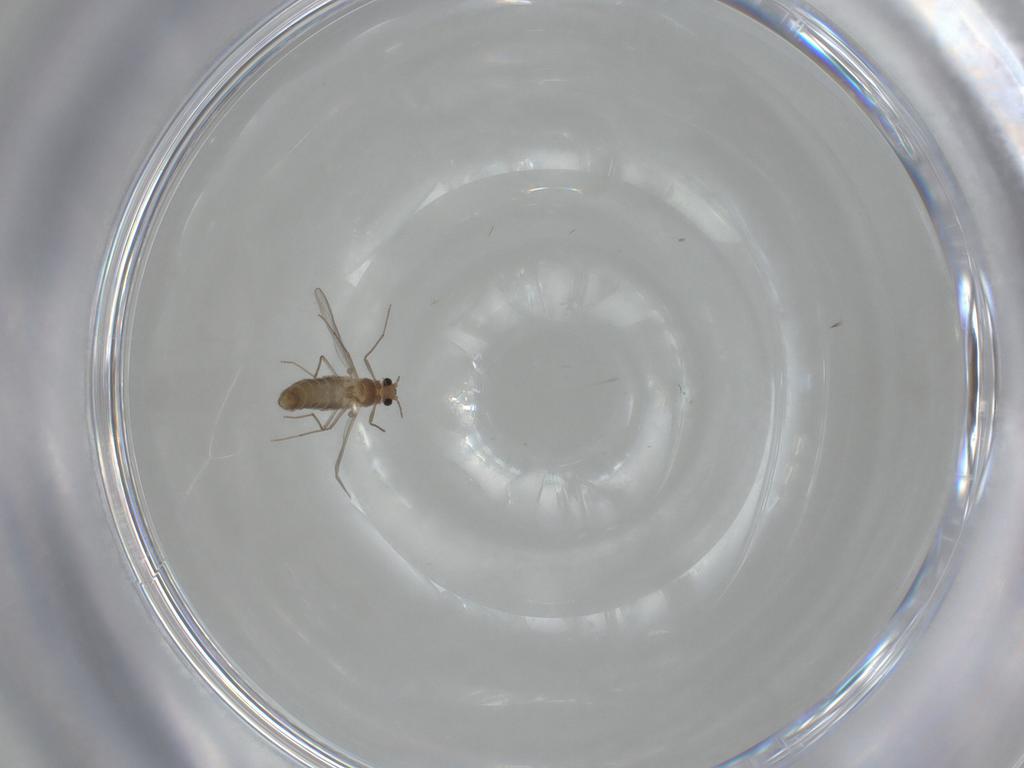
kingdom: Animalia
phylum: Arthropoda
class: Insecta
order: Diptera
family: Chironomidae
